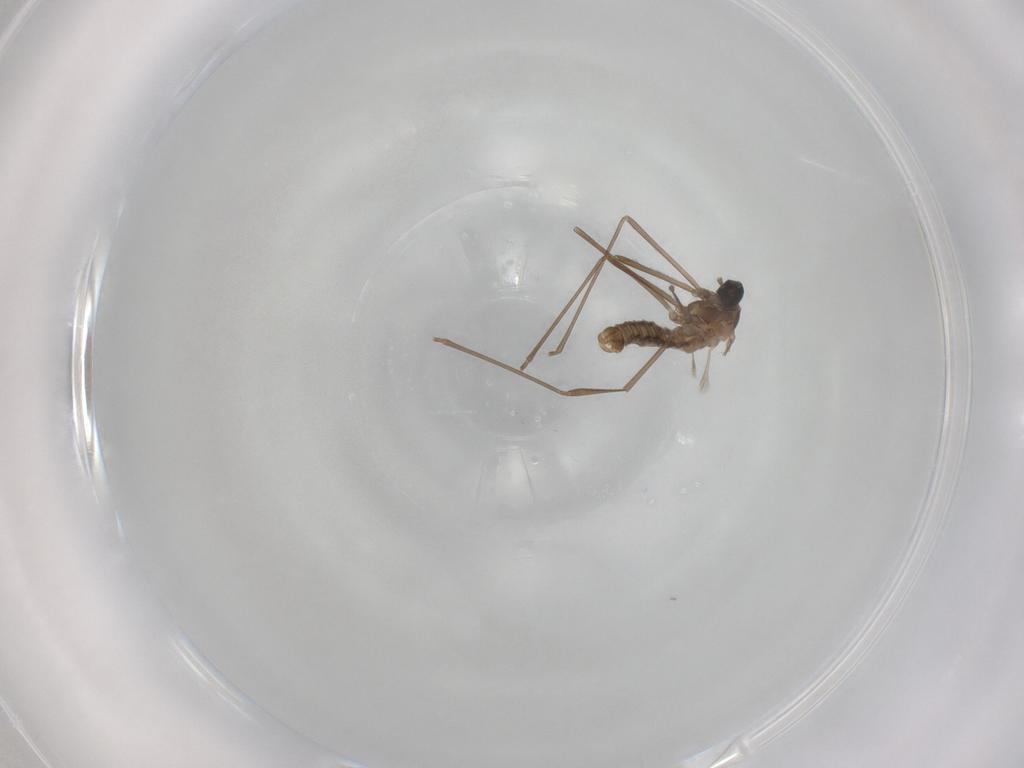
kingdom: Animalia
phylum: Arthropoda
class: Insecta
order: Diptera
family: Cecidomyiidae
